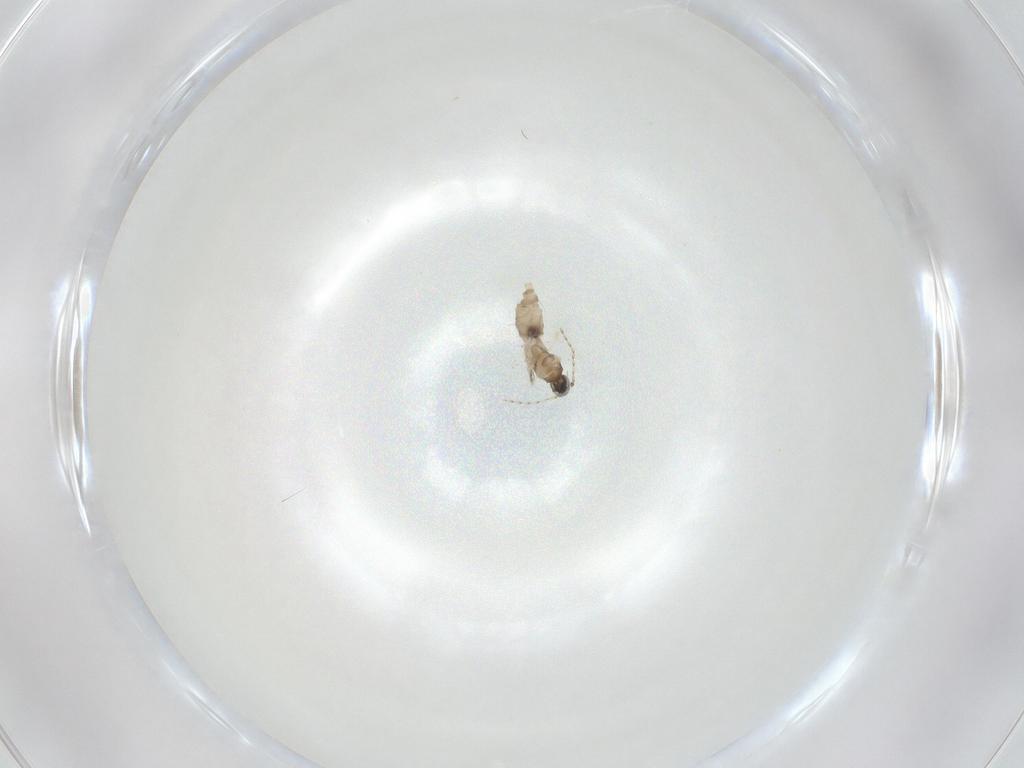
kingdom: Animalia
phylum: Arthropoda
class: Insecta
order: Diptera
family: Cecidomyiidae
